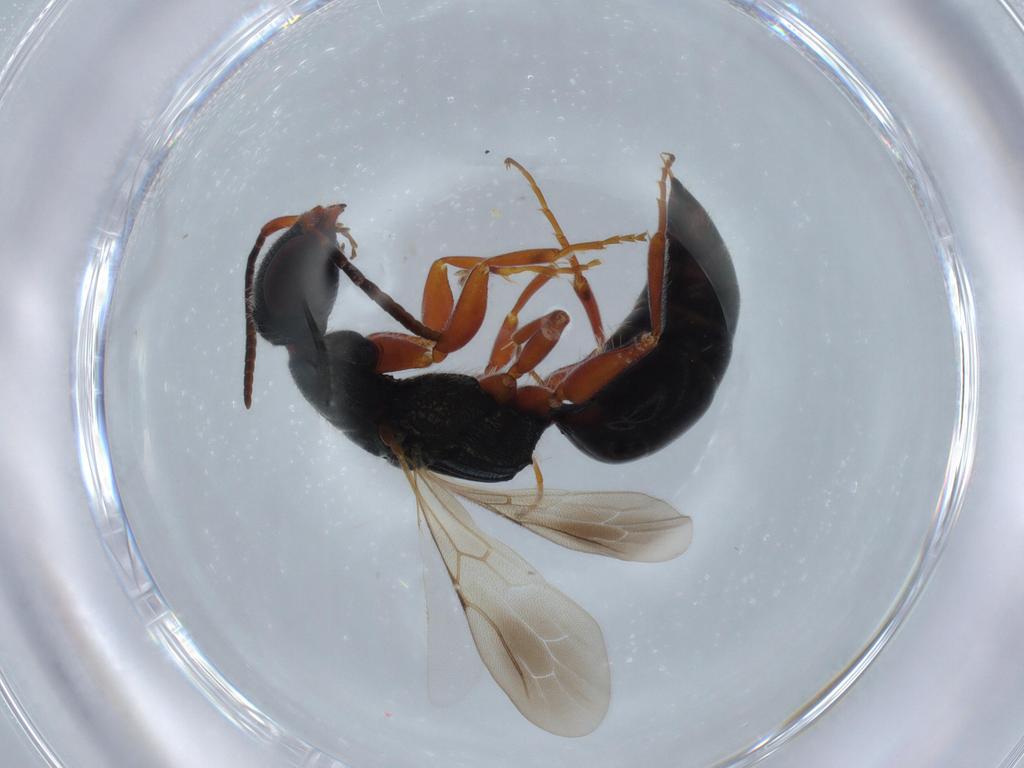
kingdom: Animalia
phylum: Arthropoda
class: Insecta
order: Hymenoptera
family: Bethylidae
